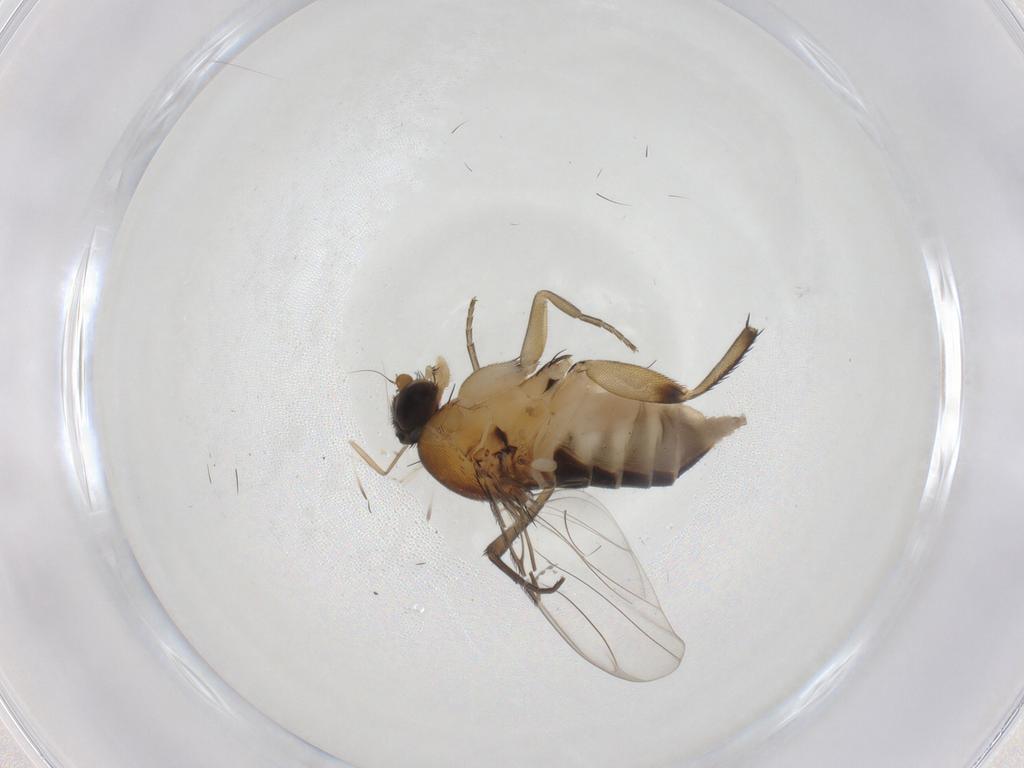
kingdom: Animalia
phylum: Arthropoda
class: Insecta
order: Diptera
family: Phoridae
